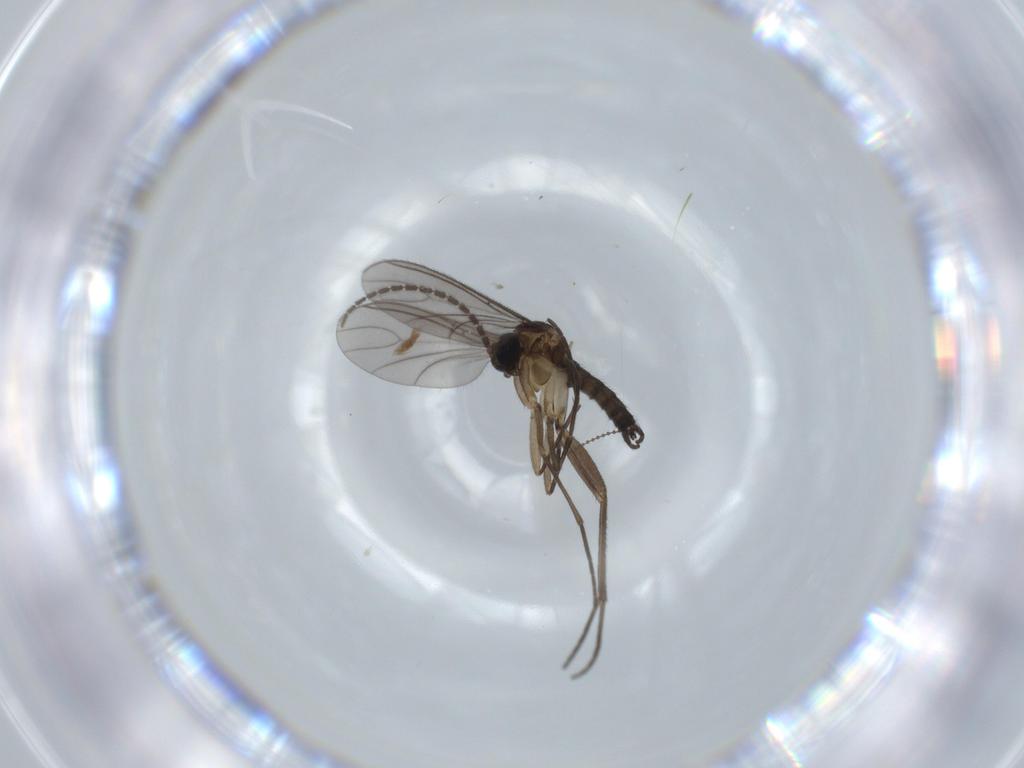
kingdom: Animalia
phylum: Arthropoda
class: Insecta
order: Diptera
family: Sciaridae
